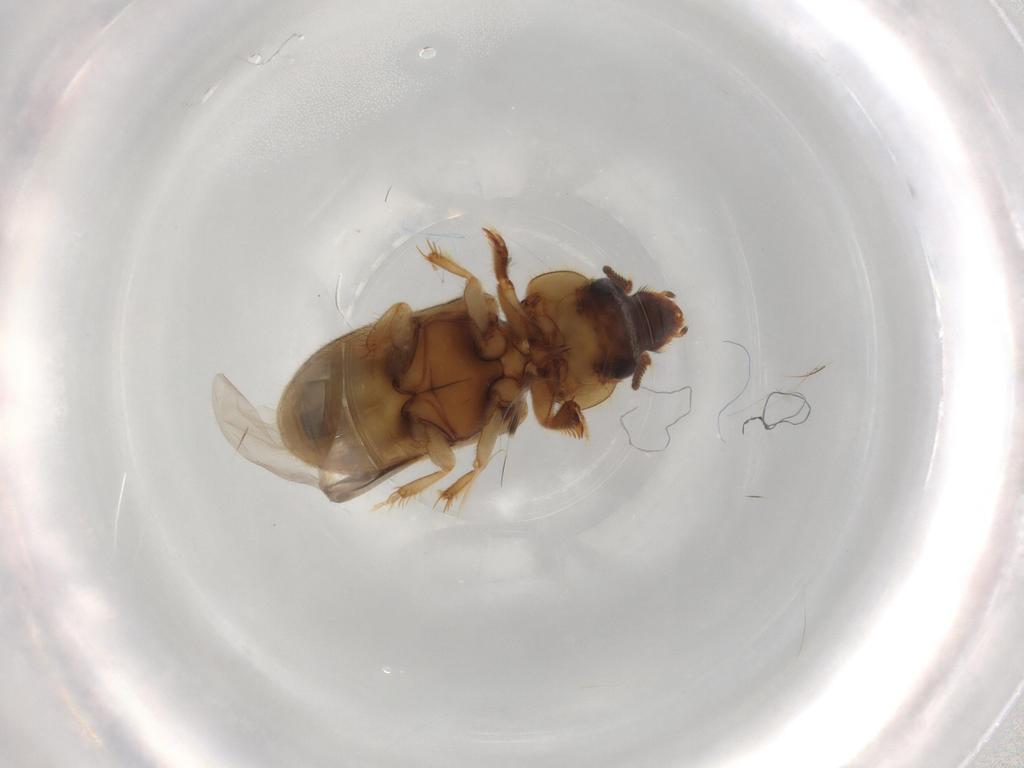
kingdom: Animalia
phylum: Arthropoda
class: Insecta
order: Coleoptera
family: Heteroceridae
